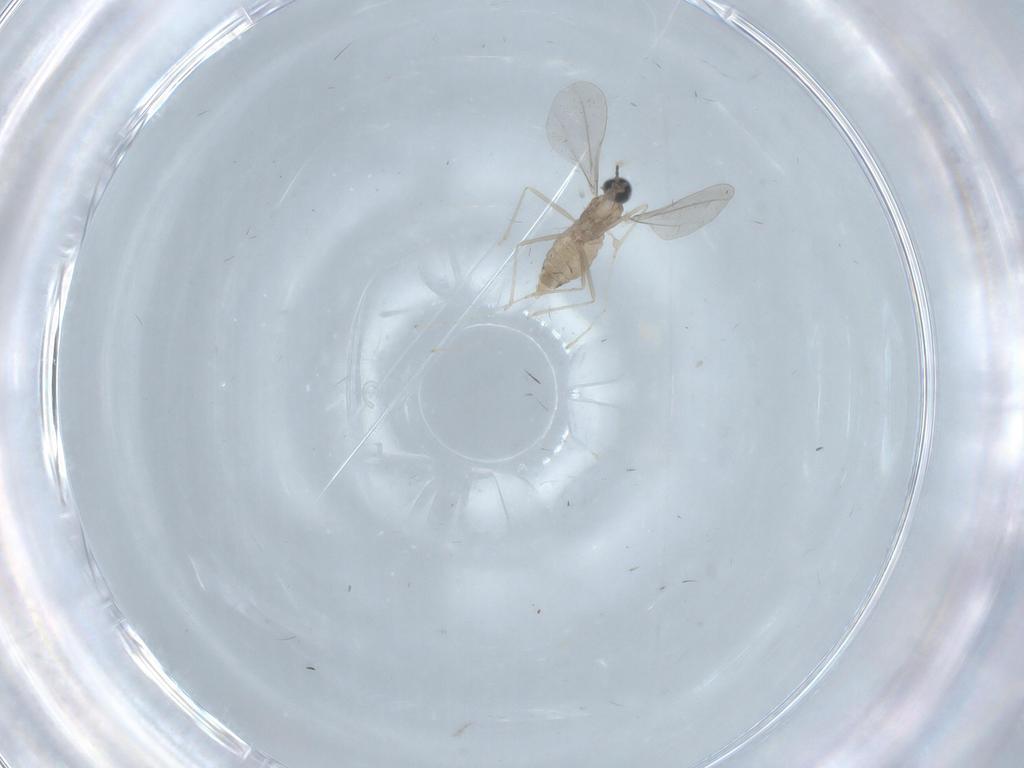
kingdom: Animalia
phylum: Arthropoda
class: Insecta
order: Diptera
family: Cecidomyiidae
